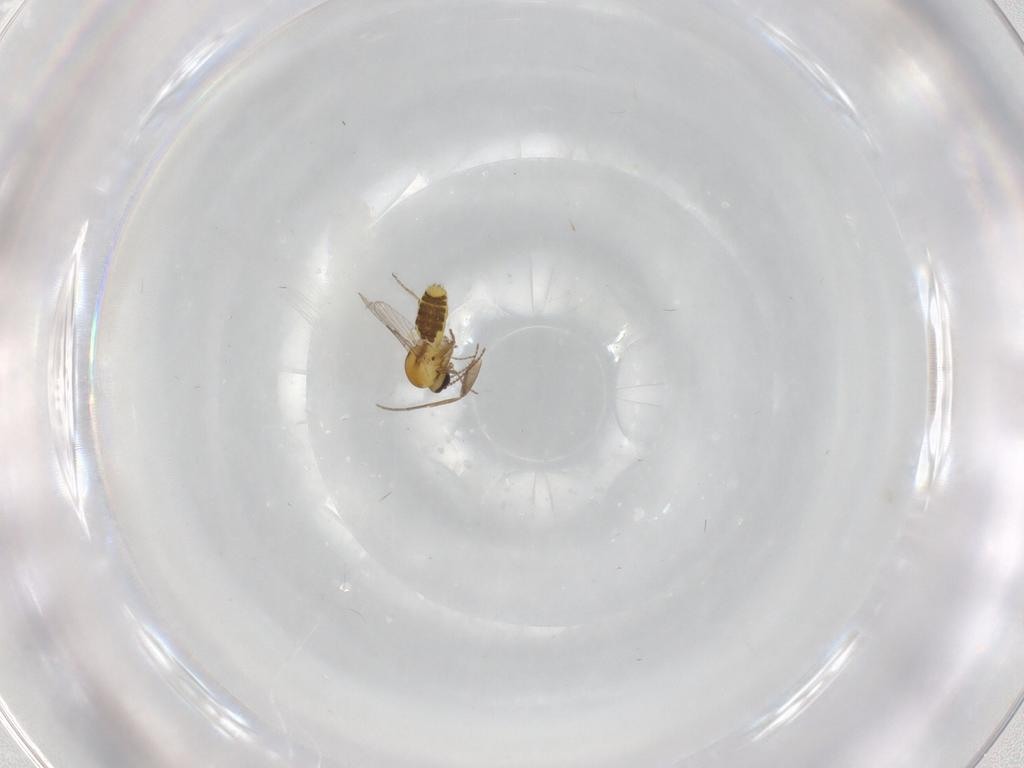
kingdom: Animalia
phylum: Arthropoda
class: Insecta
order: Diptera
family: Ceratopogonidae
